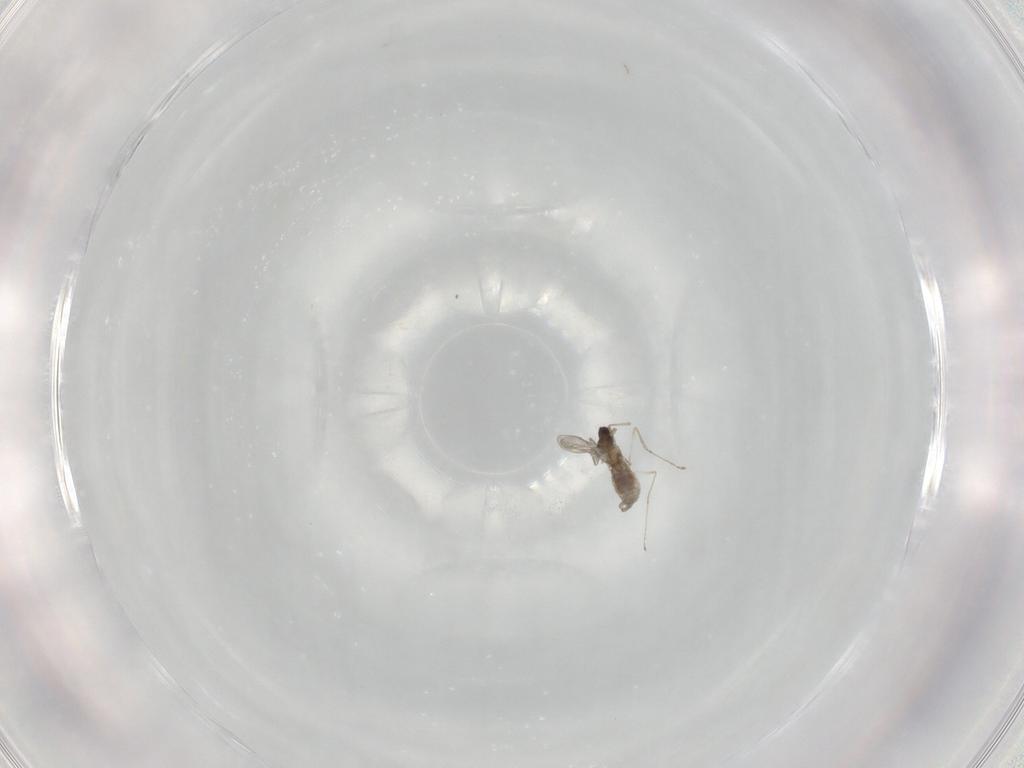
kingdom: Animalia
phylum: Arthropoda
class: Insecta
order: Diptera
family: Cecidomyiidae
